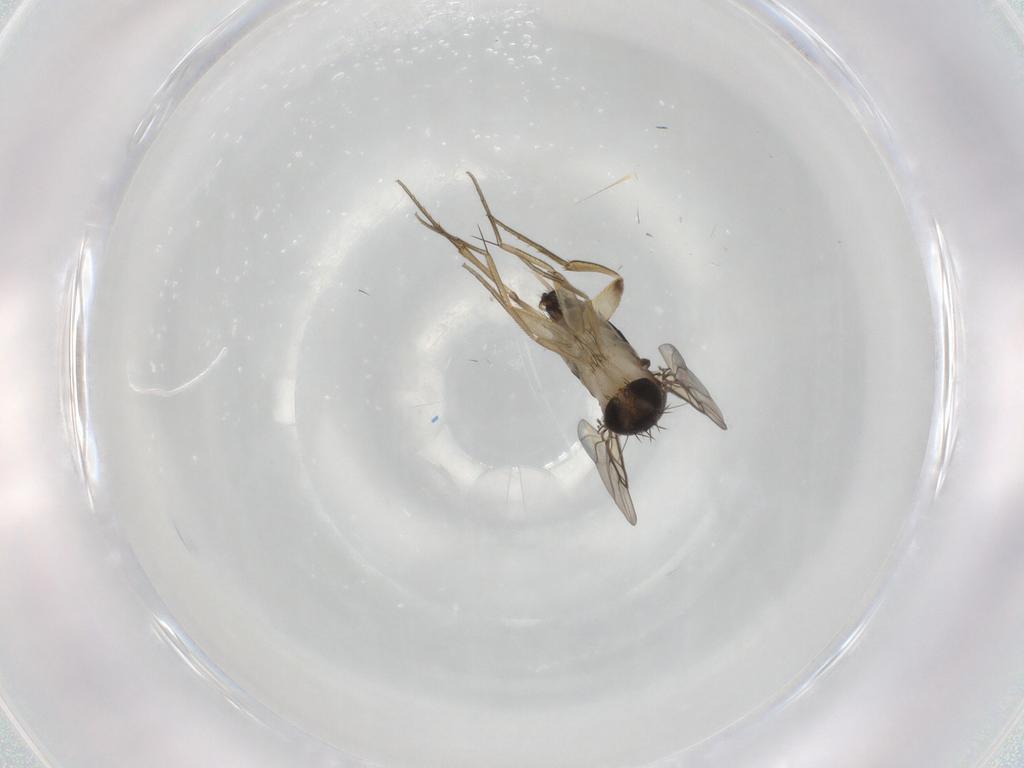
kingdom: Animalia
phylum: Arthropoda
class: Insecta
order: Diptera
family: Phoridae
